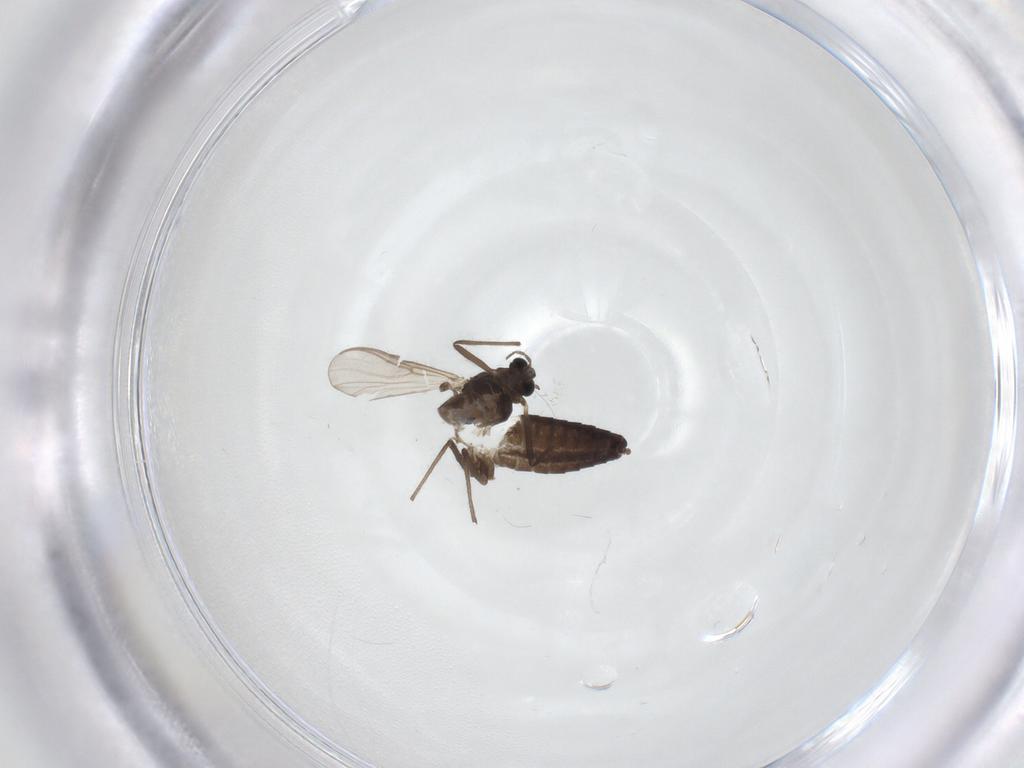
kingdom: Animalia
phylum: Arthropoda
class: Insecta
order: Diptera
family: Chironomidae
